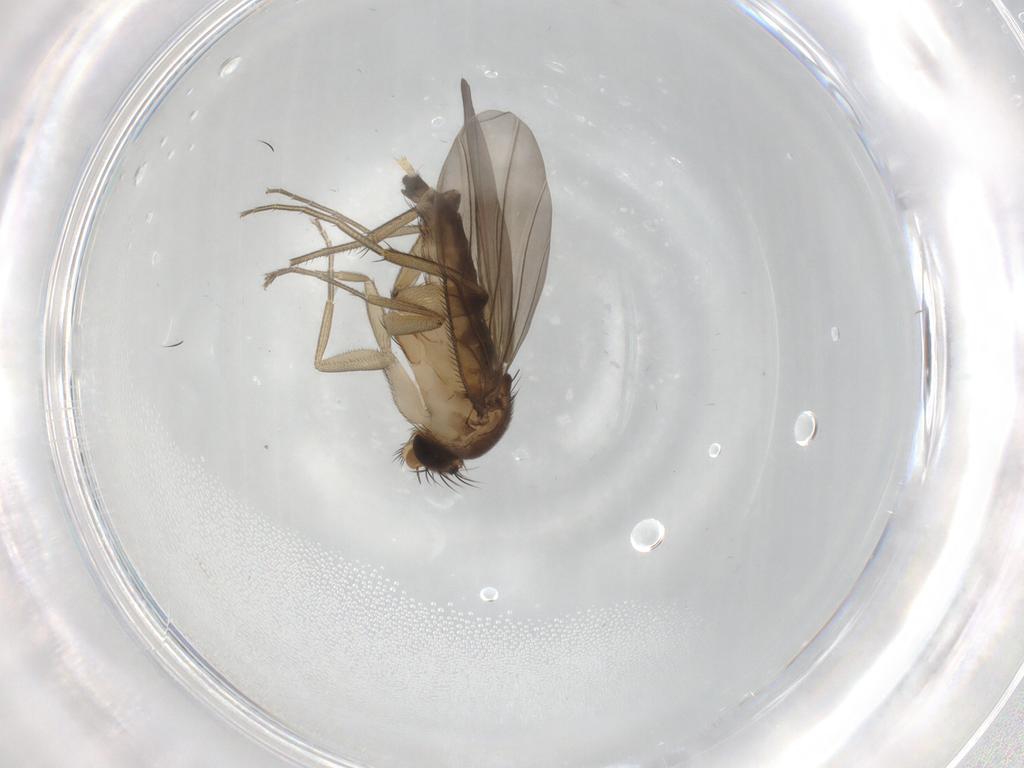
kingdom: Animalia
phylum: Arthropoda
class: Insecta
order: Diptera
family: Phoridae
